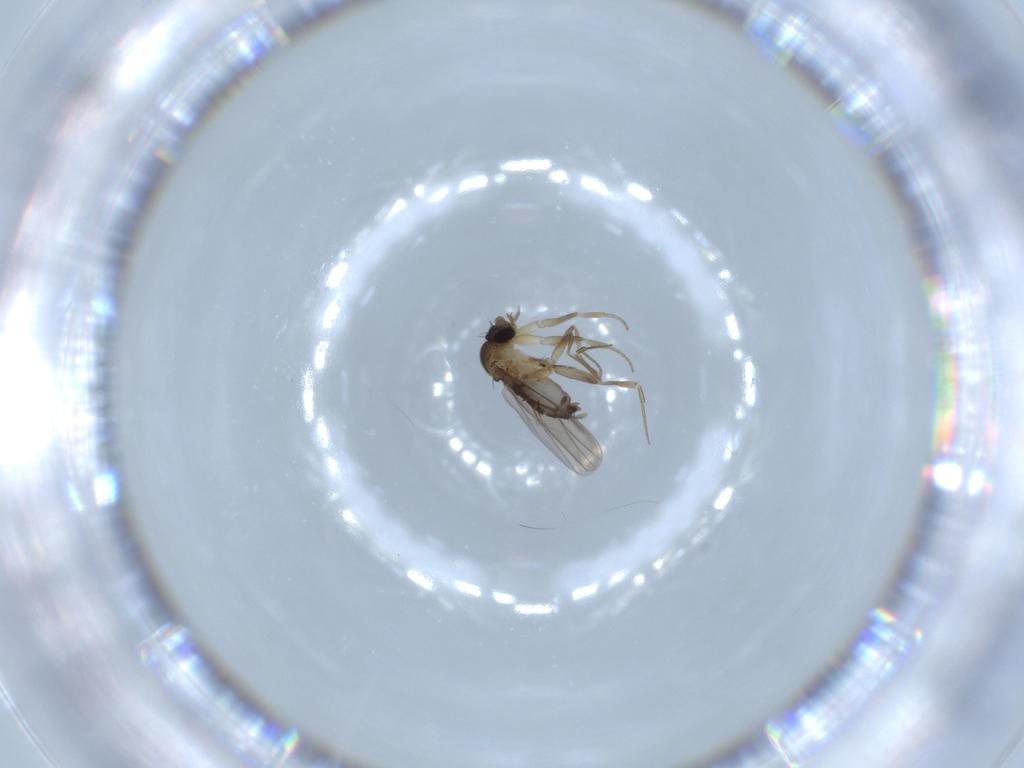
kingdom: Animalia
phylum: Arthropoda
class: Insecta
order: Diptera
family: Phoridae
